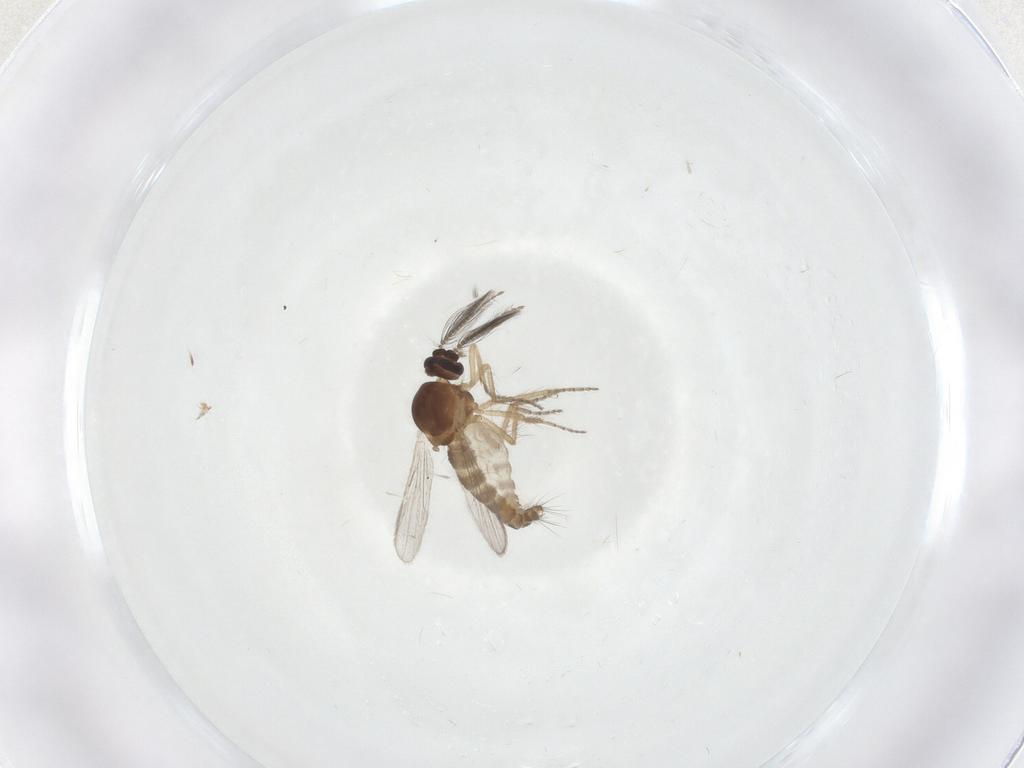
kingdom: Animalia
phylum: Arthropoda
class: Insecta
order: Diptera
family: Ceratopogonidae
